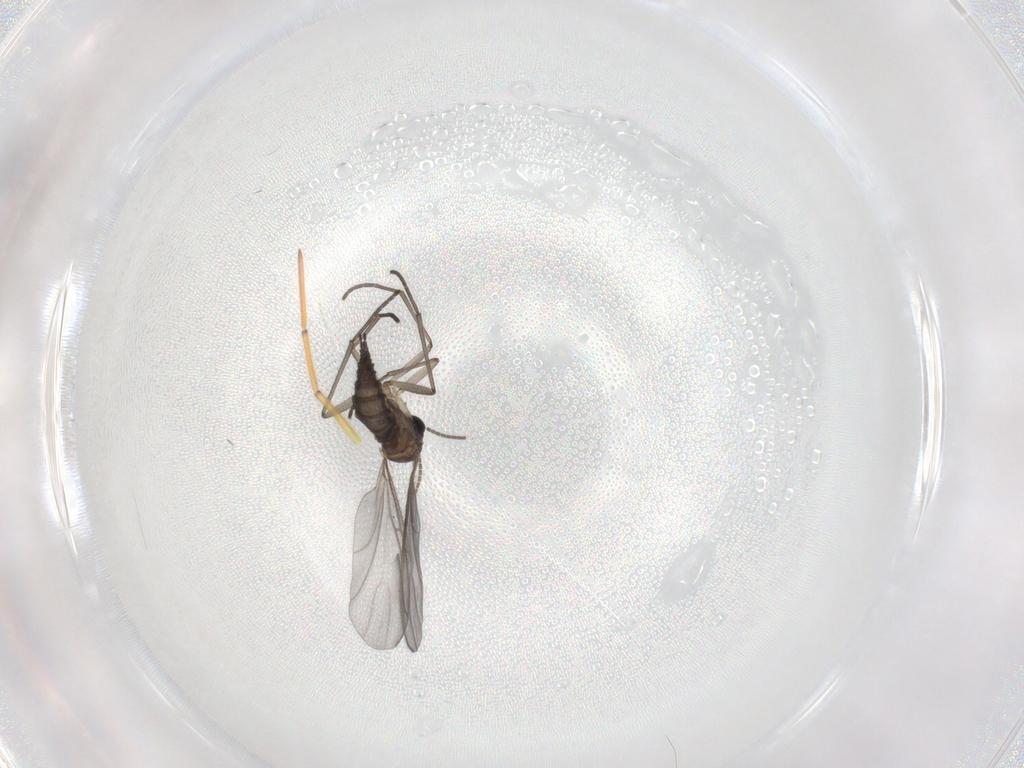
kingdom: Animalia
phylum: Arthropoda
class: Insecta
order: Diptera
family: Sciaridae
